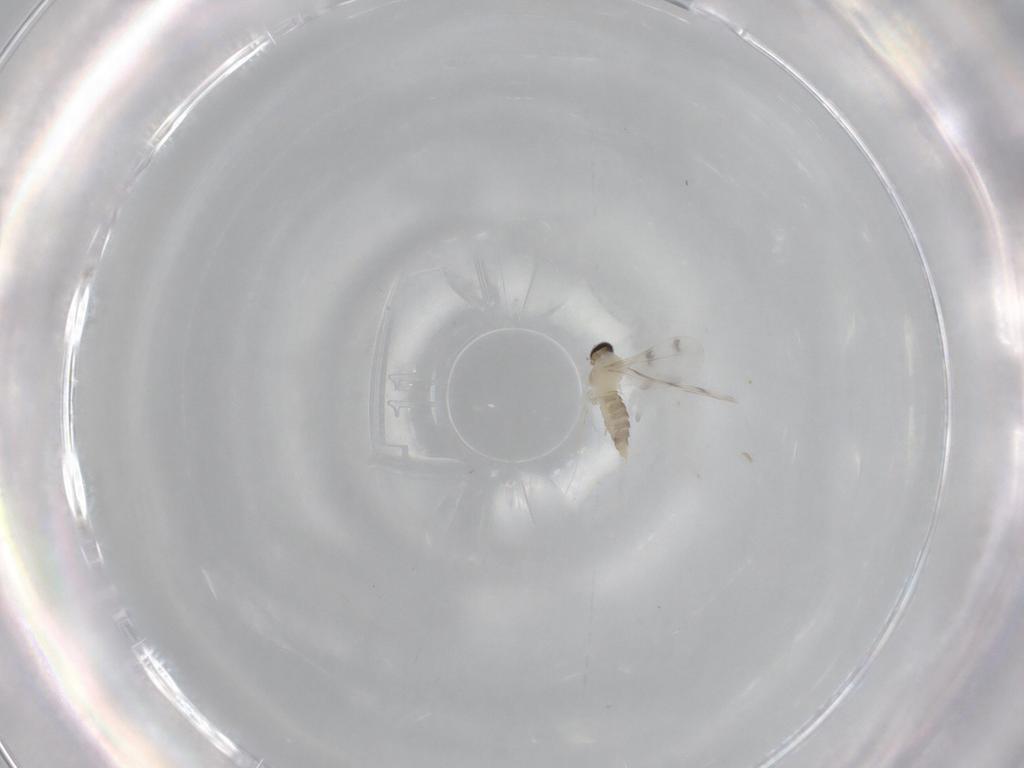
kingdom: Animalia
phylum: Arthropoda
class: Insecta
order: Diptera
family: Cecidomyiidae
